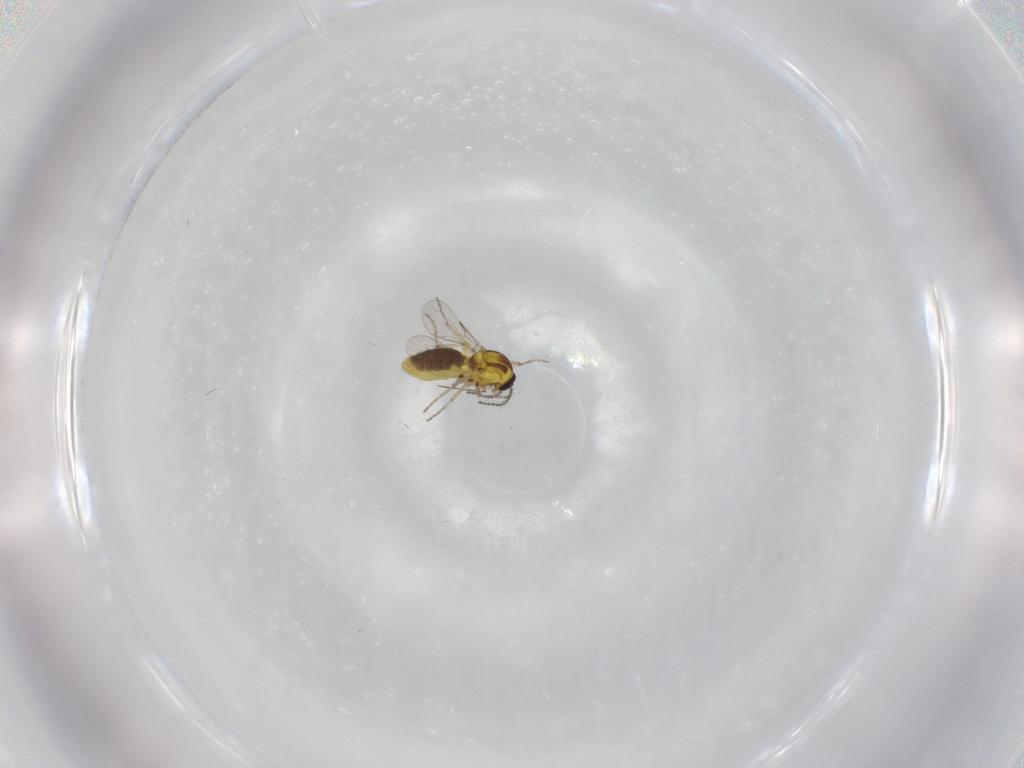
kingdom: Animalia
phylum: Arthropoda
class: Insecta
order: Diptera
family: Ceratopogonidae
